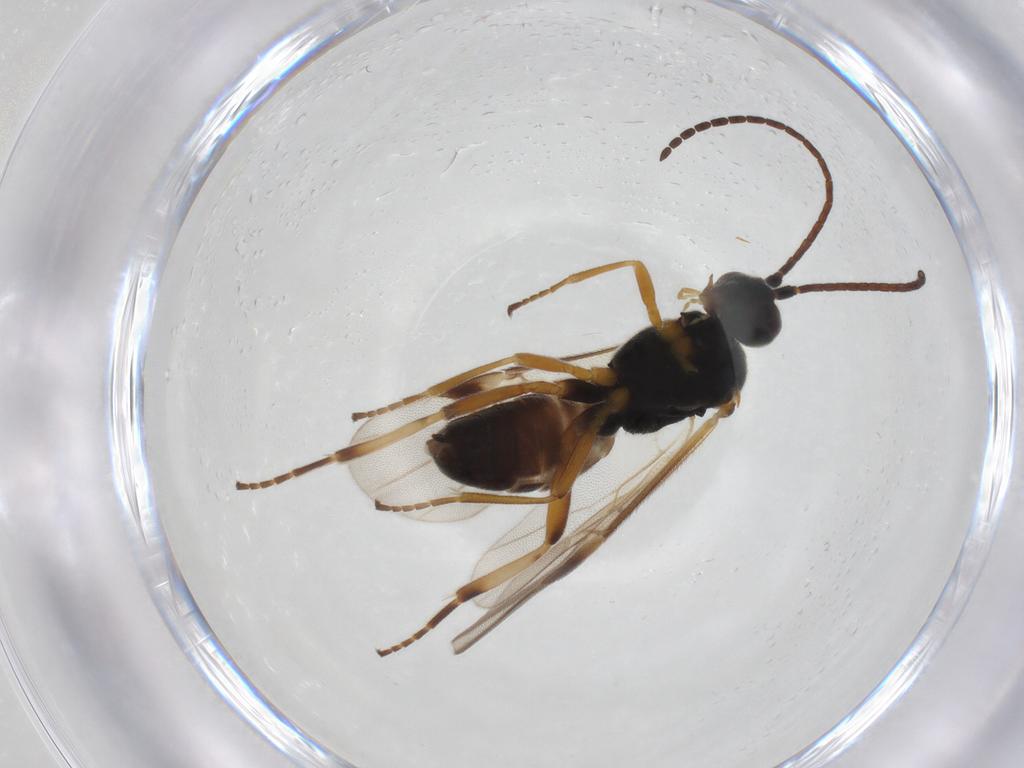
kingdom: Animalia
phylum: Arthropoda
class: Insecta
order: Hymenoptera
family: Braconidae
